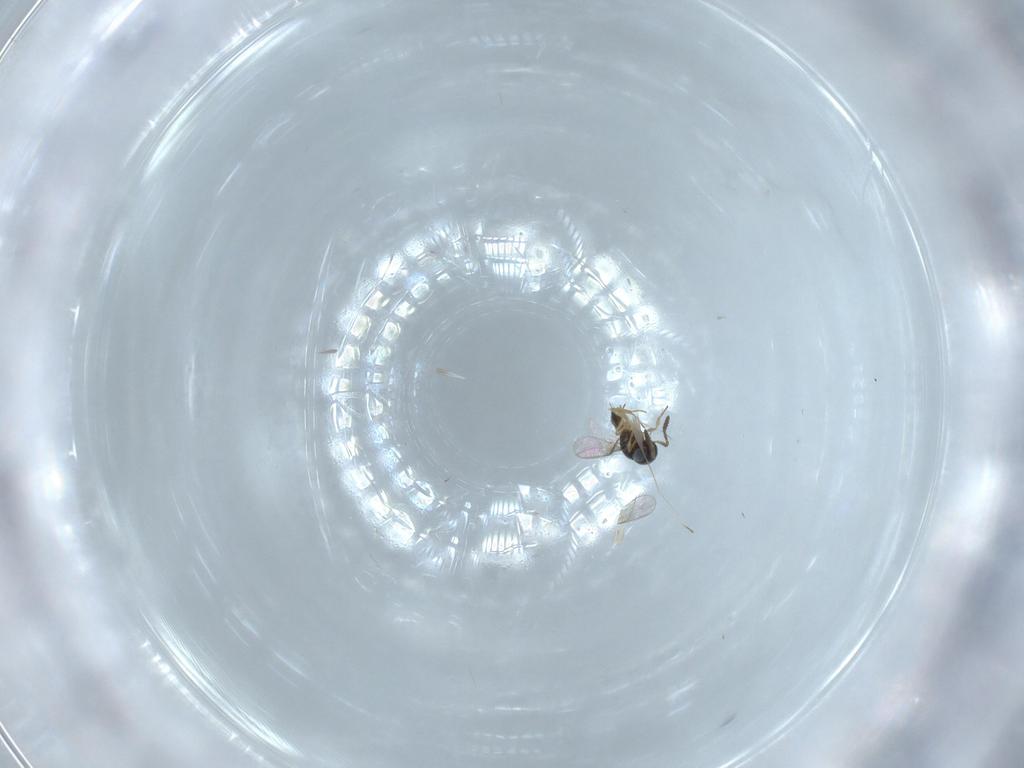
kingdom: Animalia
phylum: Arthropoda
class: Insecta
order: Hymenoptera
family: Scelionidae
